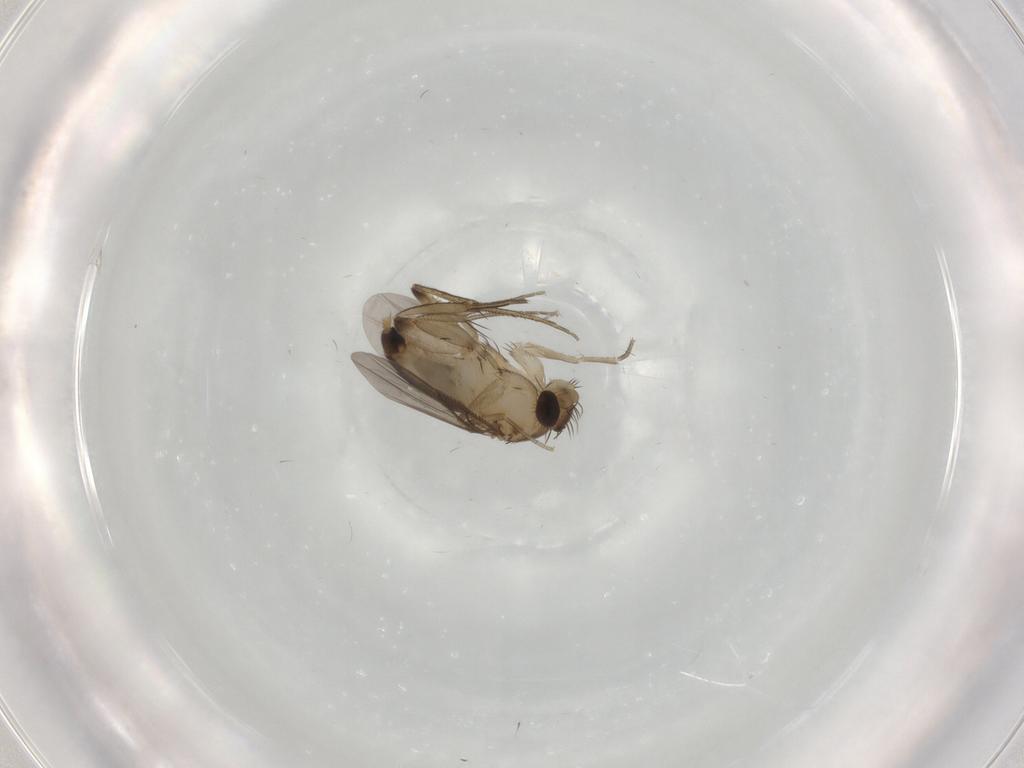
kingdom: Animalia
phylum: Arthropoda
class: Insecta
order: Diptera
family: Phoridae
